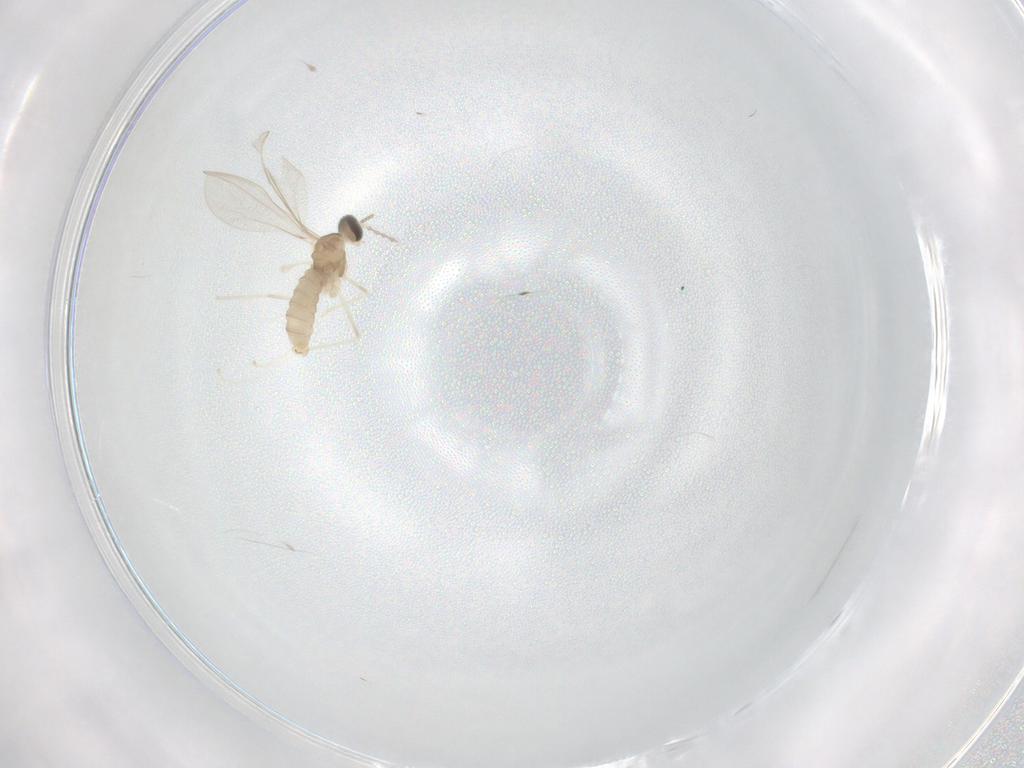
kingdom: Animalia
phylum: Arthropoda
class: Insecta
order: Diptera
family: Cecidomyiidae
